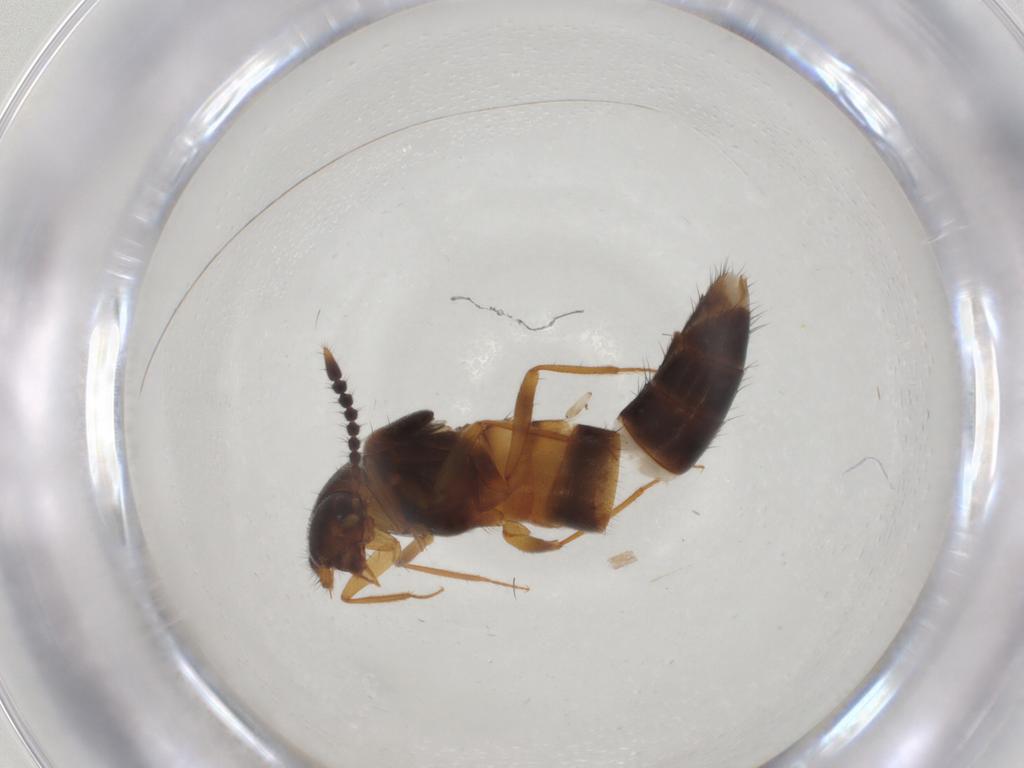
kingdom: Animalia
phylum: Arthropoda
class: Insecta
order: Coleoptera
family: Staphylinidae
